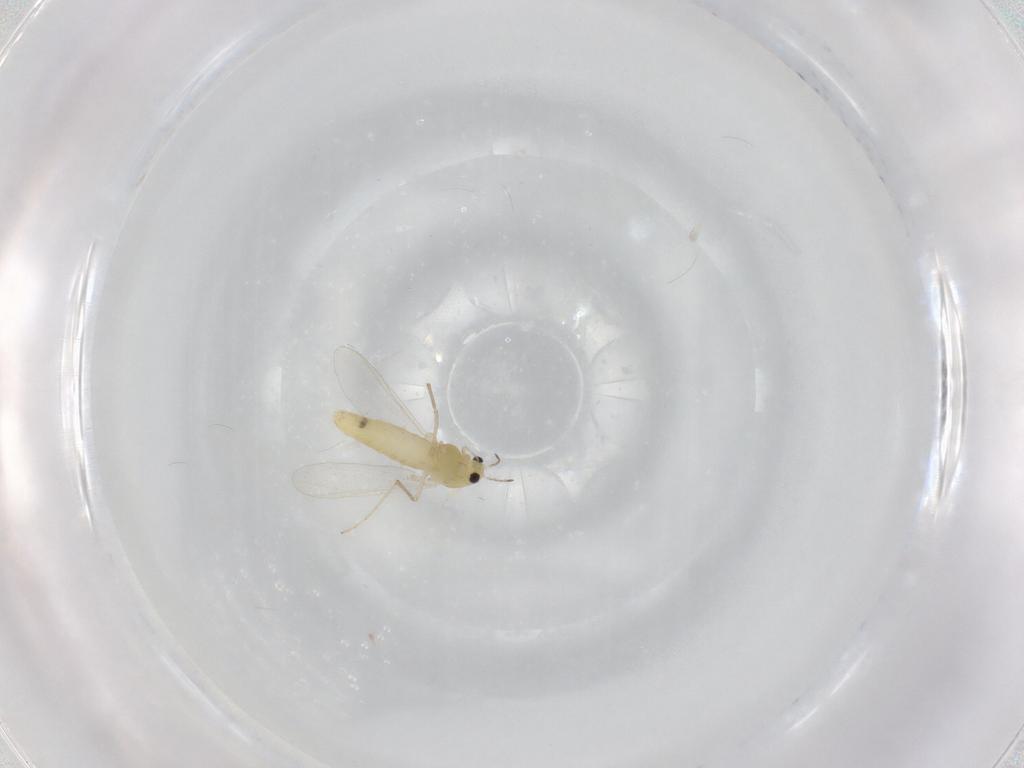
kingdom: Animalia
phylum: Arthropoda
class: Insecta
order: Diptera
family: Chironomidae
